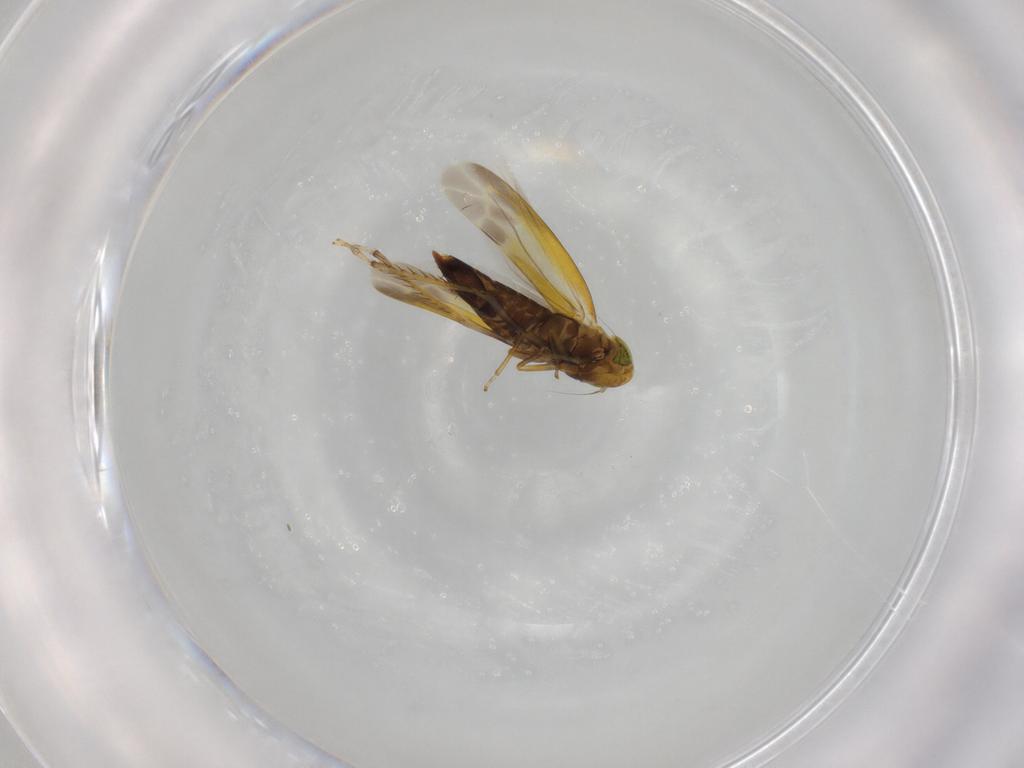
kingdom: Animalia
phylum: Arthropoda
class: Insecta
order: Hemiptera
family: Cicadellidae
